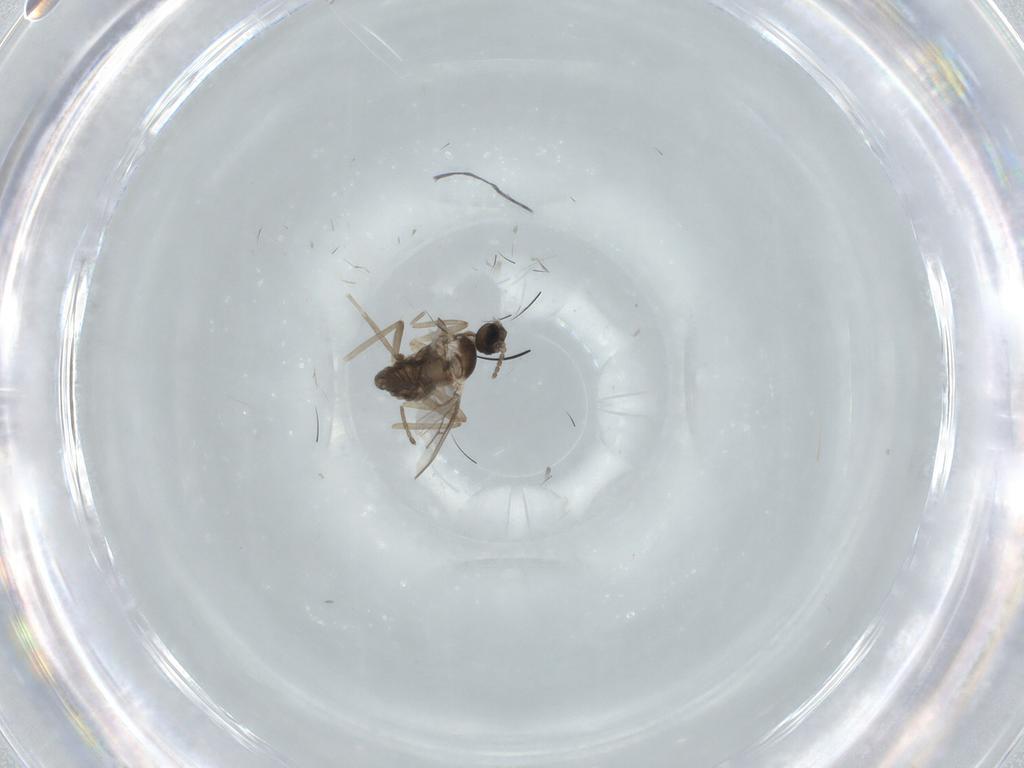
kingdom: Animalia
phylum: Arthropoda
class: Insecta
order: Diptera
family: Cecidomyiidae
